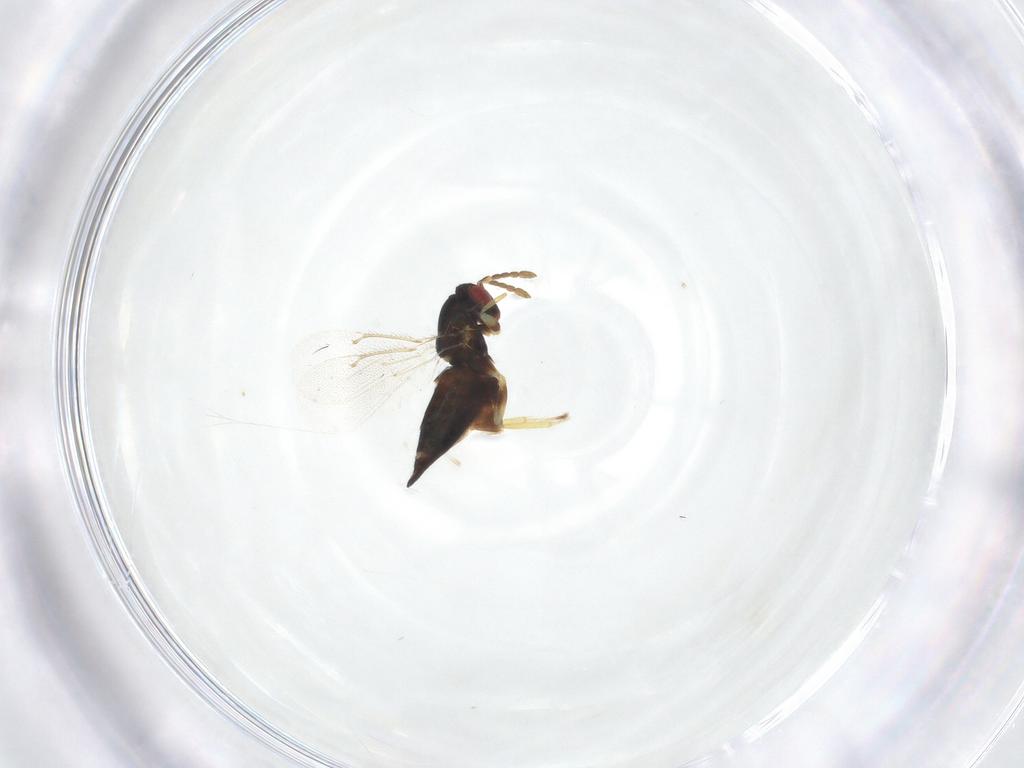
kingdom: Animalia
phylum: Arthropoda
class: Insecta
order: Hymenoptera
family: Eulophidae
